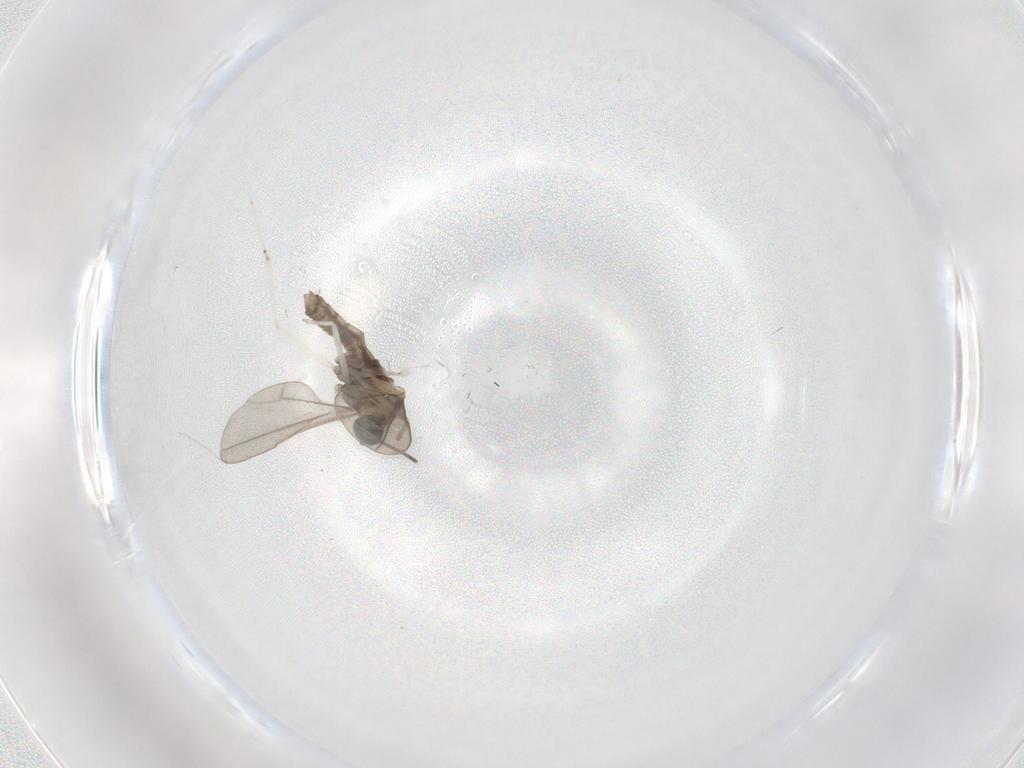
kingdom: Animalia
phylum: Arthropoda
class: Insecta
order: Diptera
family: Cecidomyiidae
